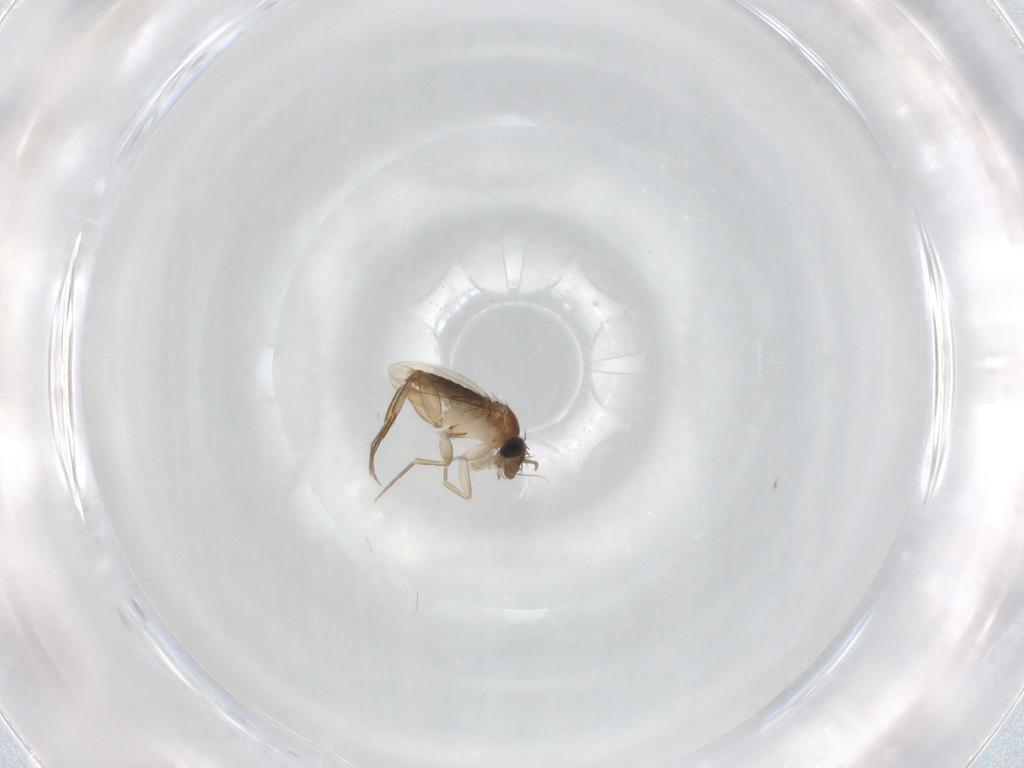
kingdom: Animalia
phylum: Arthropoda
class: Insecta
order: Diptera
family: Phoridae
